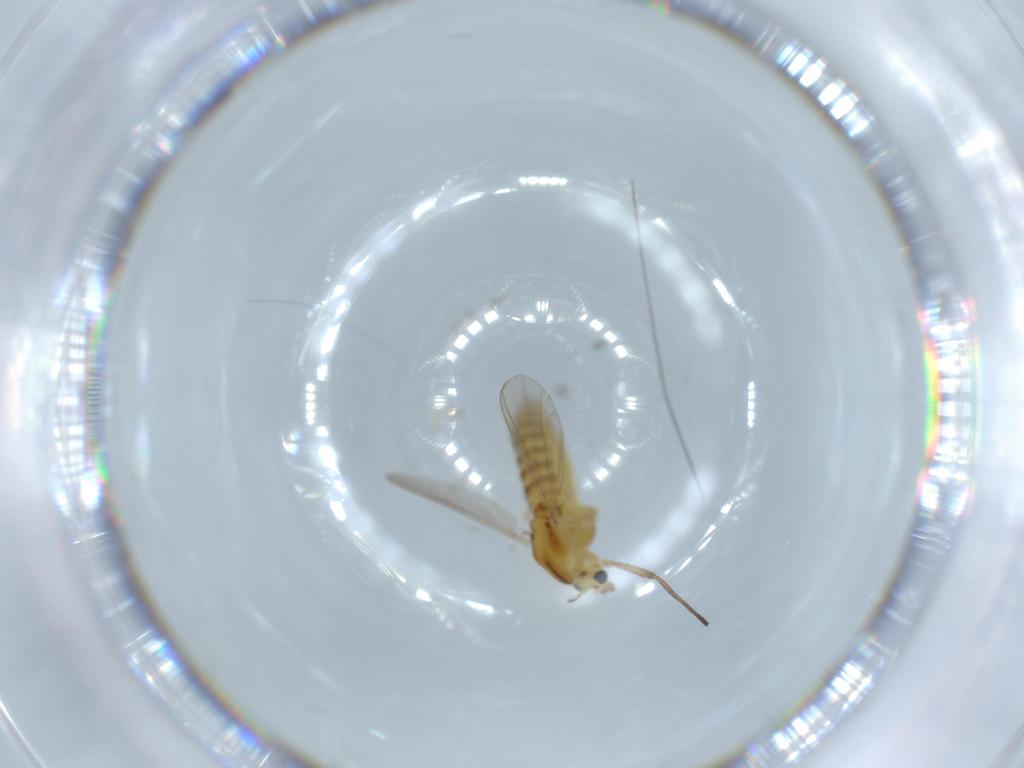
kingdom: Animalia
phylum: Arthropoda
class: Insecta
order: Diptera
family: Chironomidae
